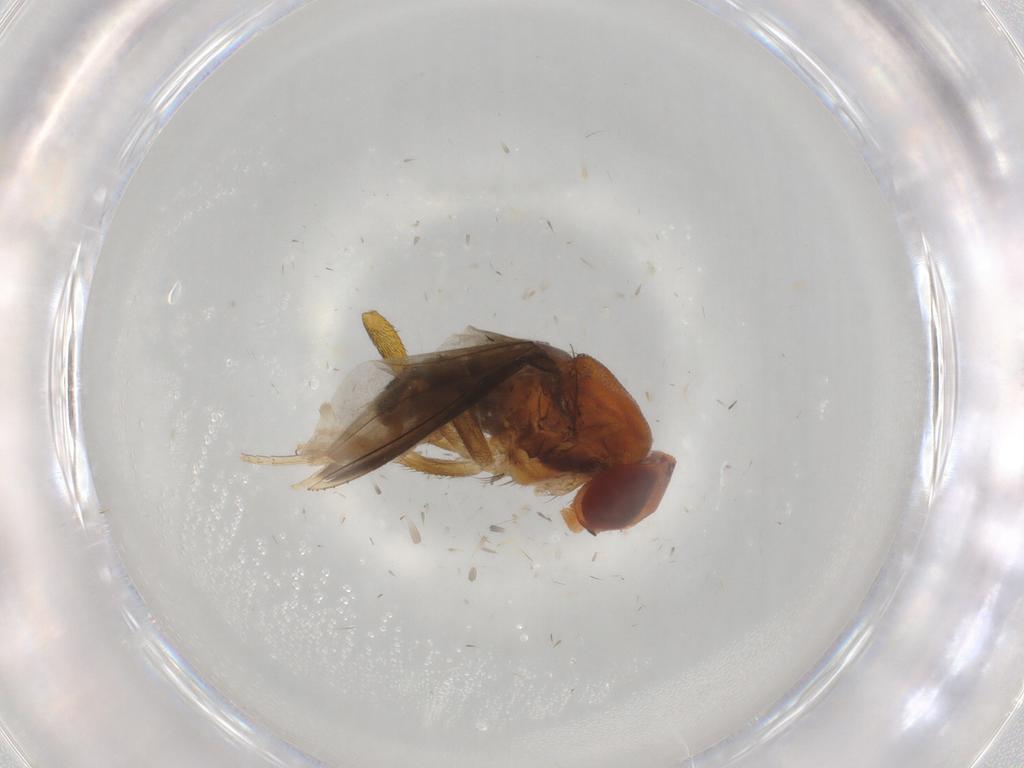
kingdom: Animalia
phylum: Arthropoda
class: Insecta
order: Diptera
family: Drosophilidae
